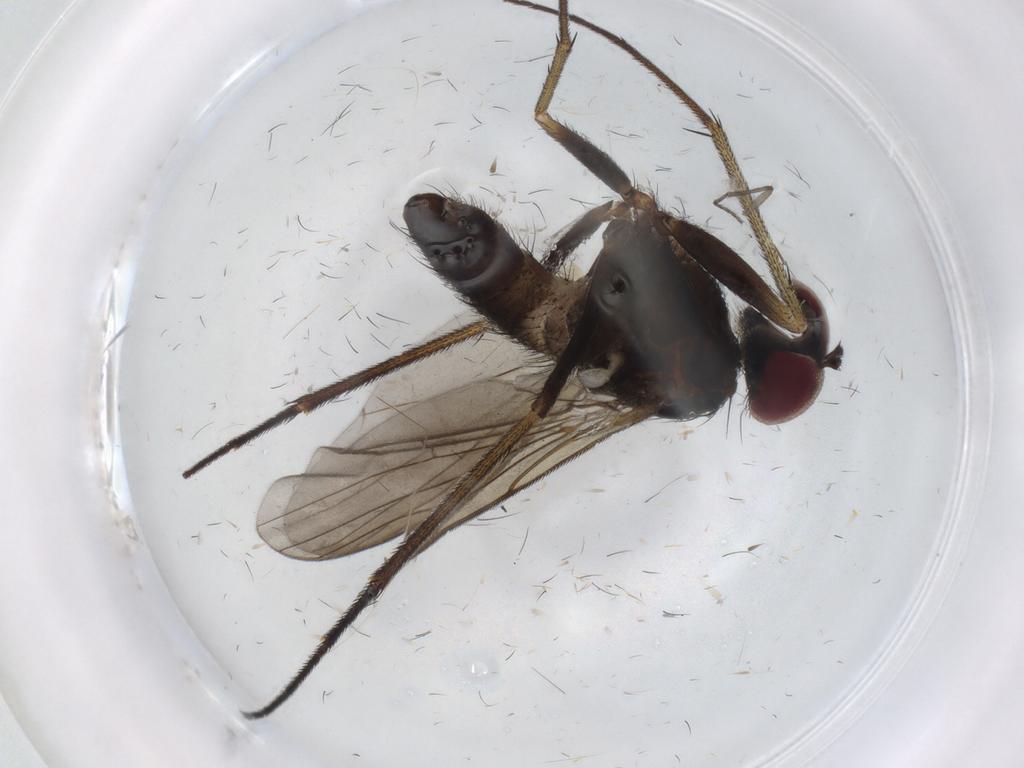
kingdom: Animalia
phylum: Arthropoda
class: Insecta
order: Diptera
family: Dolichopodidae
